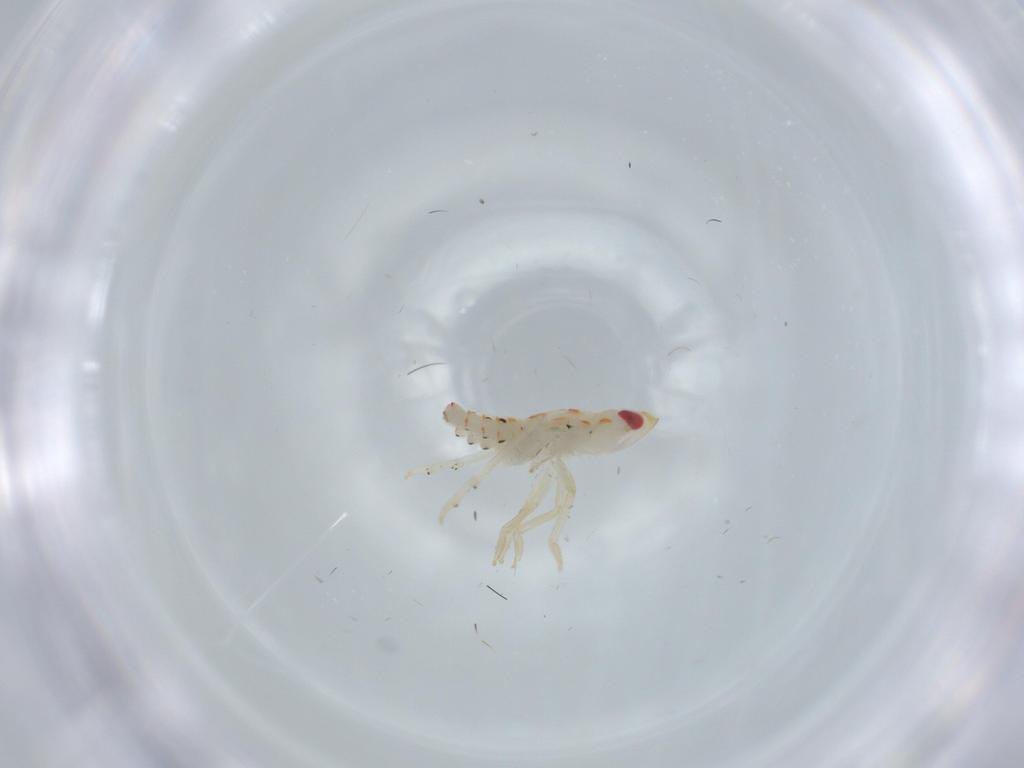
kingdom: Animalia
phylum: Arthropoda
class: Insecta
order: Hemiptera
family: Tropiduchidae
